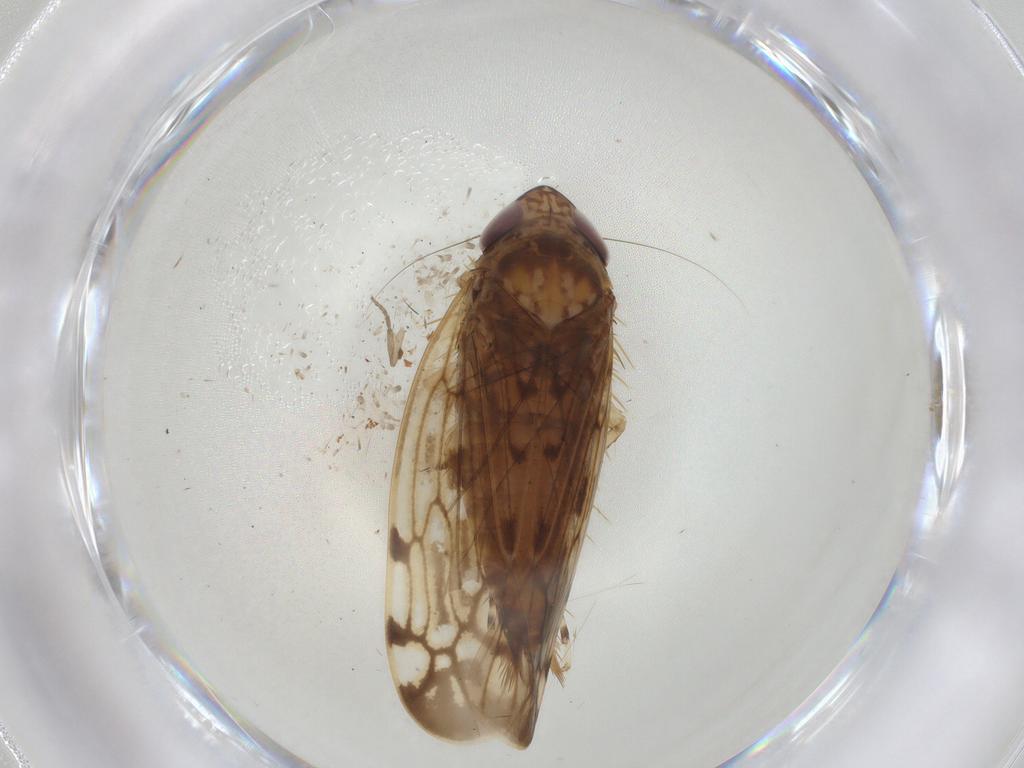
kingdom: Animalia
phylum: Arthropoda
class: Insecta
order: Hemiptera
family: Cicadellidae
